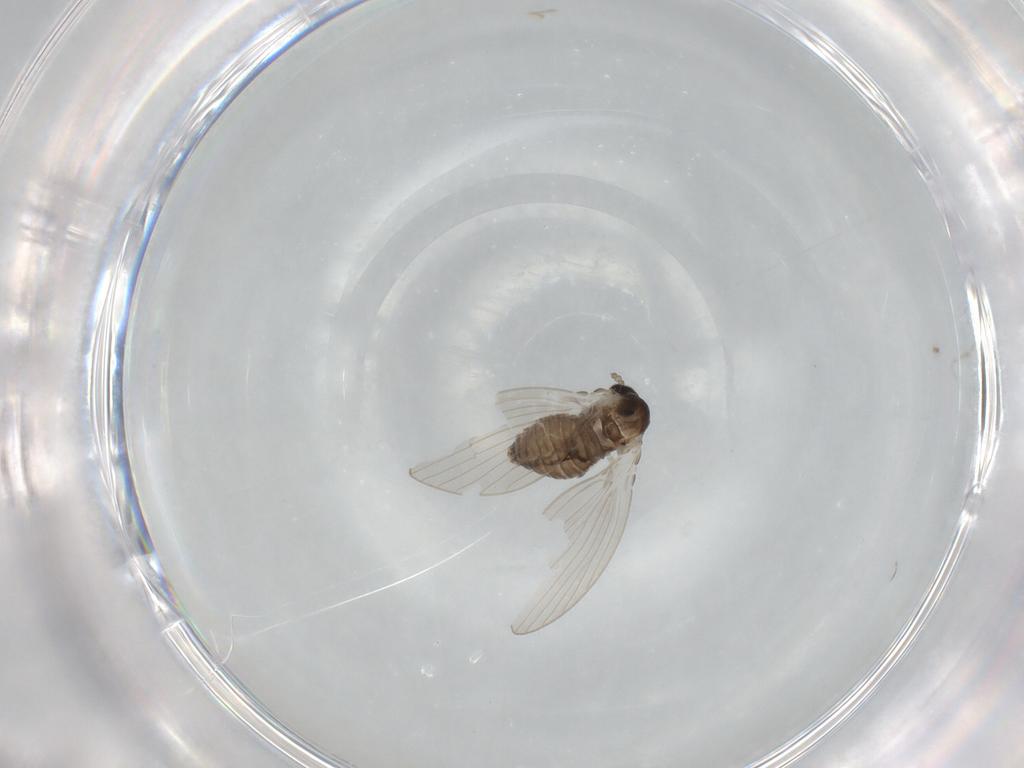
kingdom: Animalia
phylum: Arthropoda
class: Insecta
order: Diptera
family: Psychodidae
